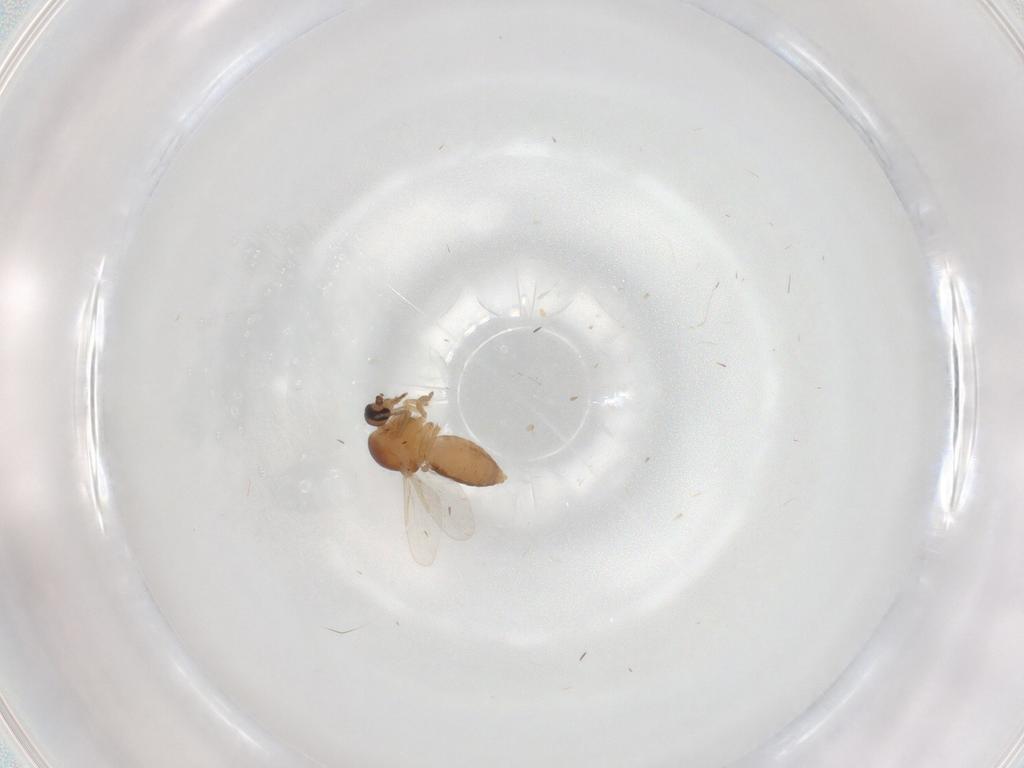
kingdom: Animalia
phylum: Arthropoda
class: Insecta
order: Diptera
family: Ceratopogonidae
